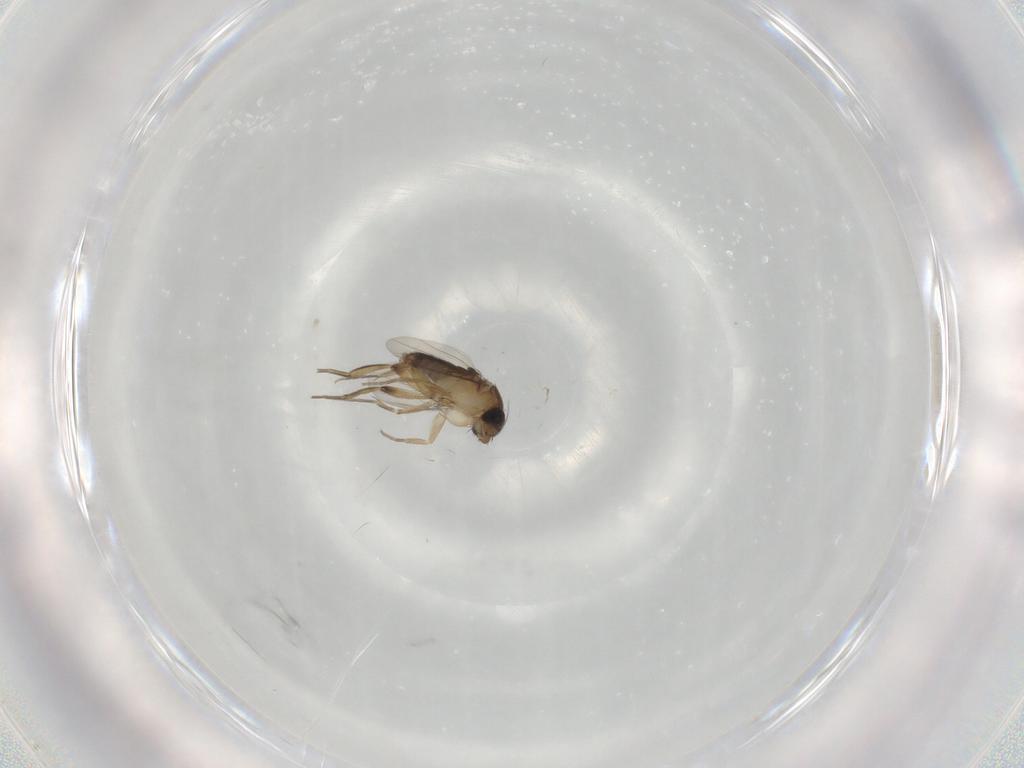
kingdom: Animalia
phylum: Arthropoda
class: Insecta
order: Diptera
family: Phoridae
